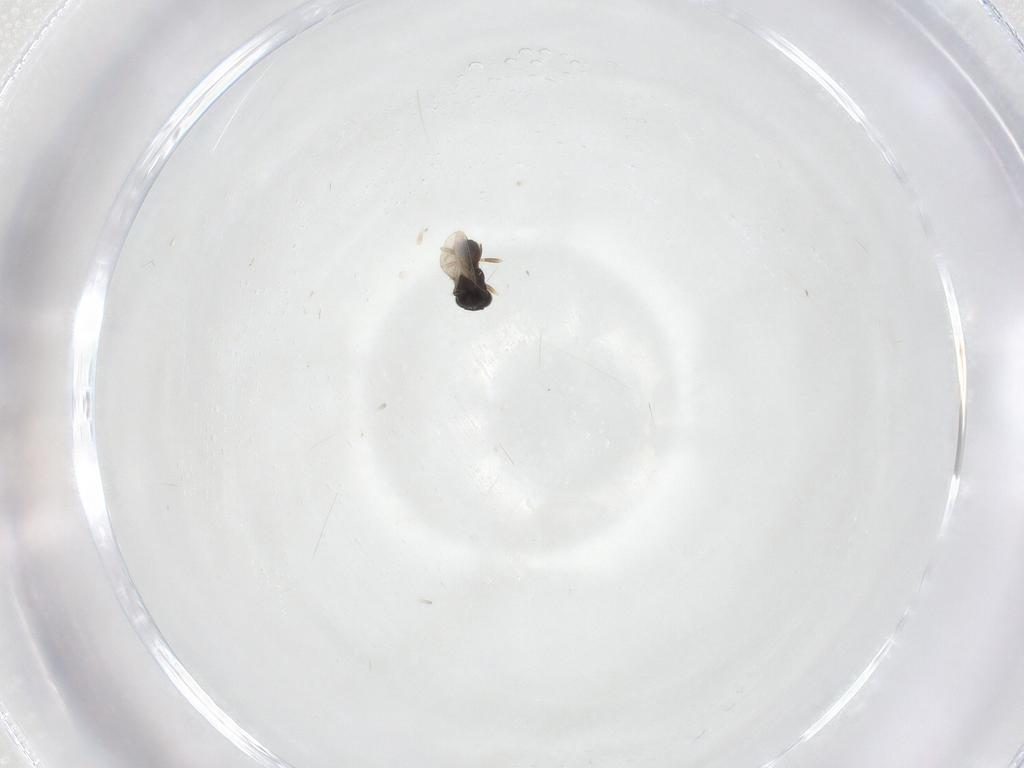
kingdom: Animalia
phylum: Arthropoda
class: Insecta
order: Hymenoptera
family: Scelionidae
